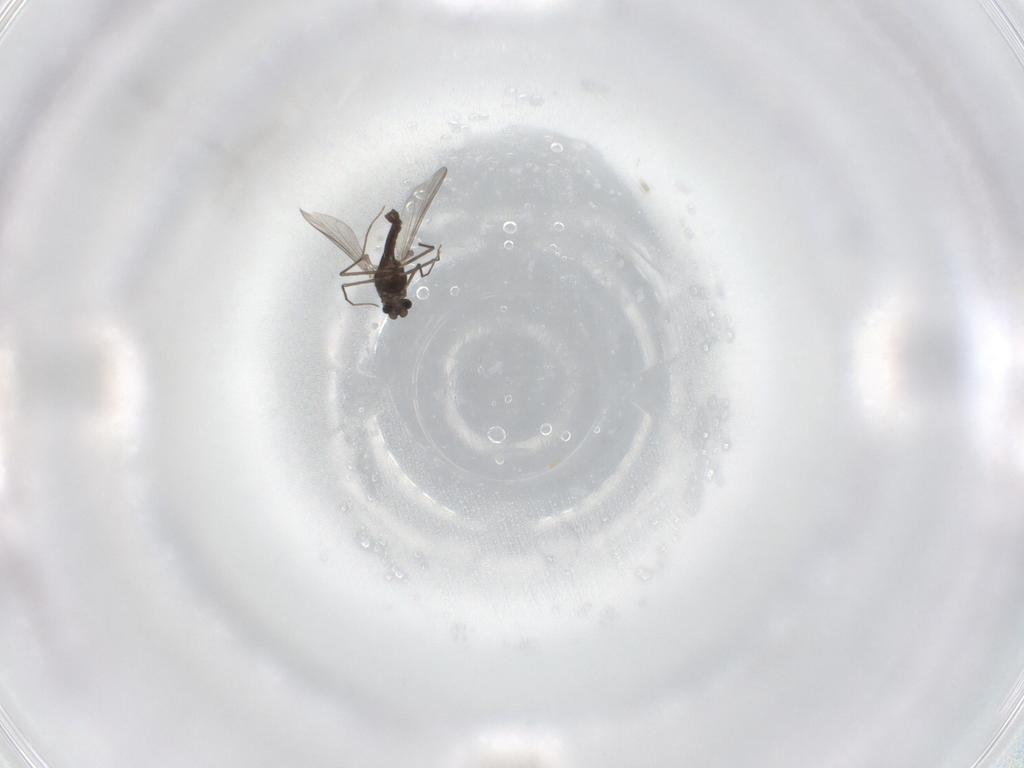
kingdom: Animalia
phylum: Arthropoda
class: Insecta
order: Diptera
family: Chironomidae
